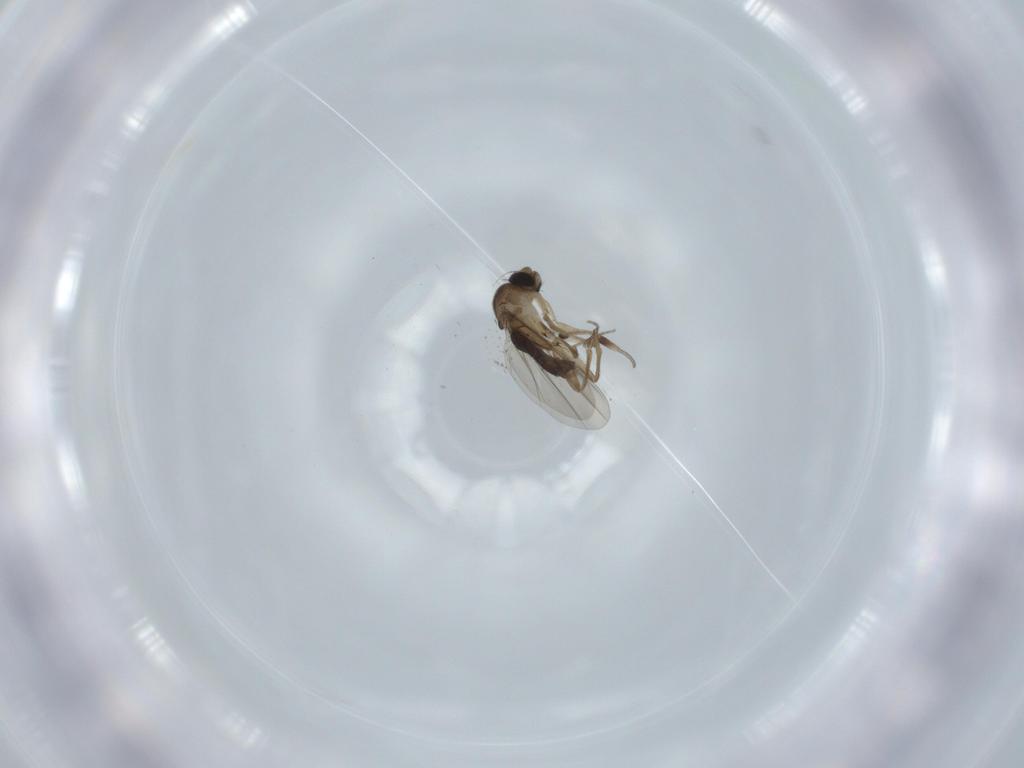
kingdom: Animalia
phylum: Arthropoda
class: Insecta
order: Diptera
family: Phoridae
